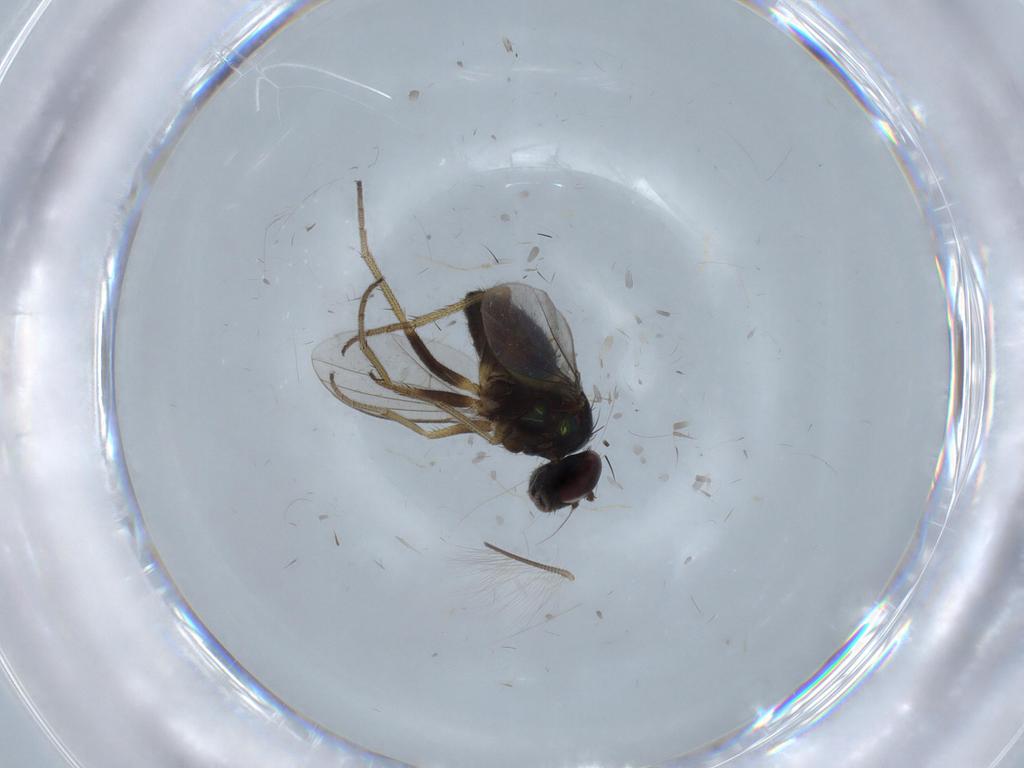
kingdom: Animalia
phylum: Arthropoda
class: Insecta
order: Diptera
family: Dolichopodidae
